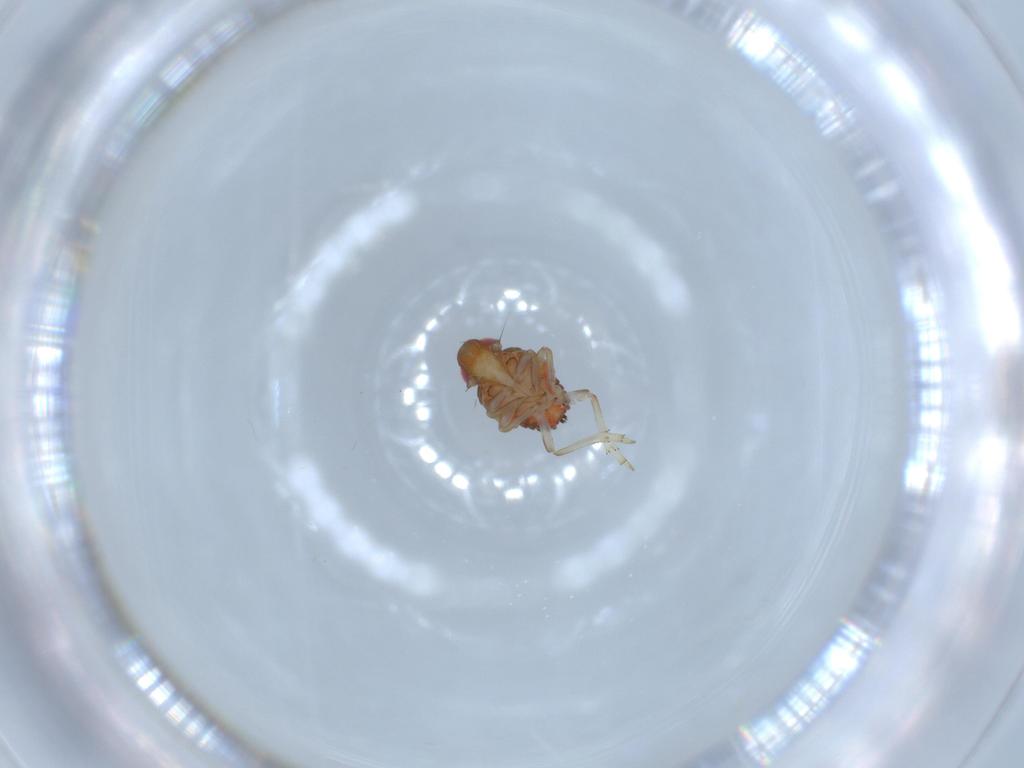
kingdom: Animalia
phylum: Arthropoda
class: Insecta
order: Hemiptera
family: Issidae
